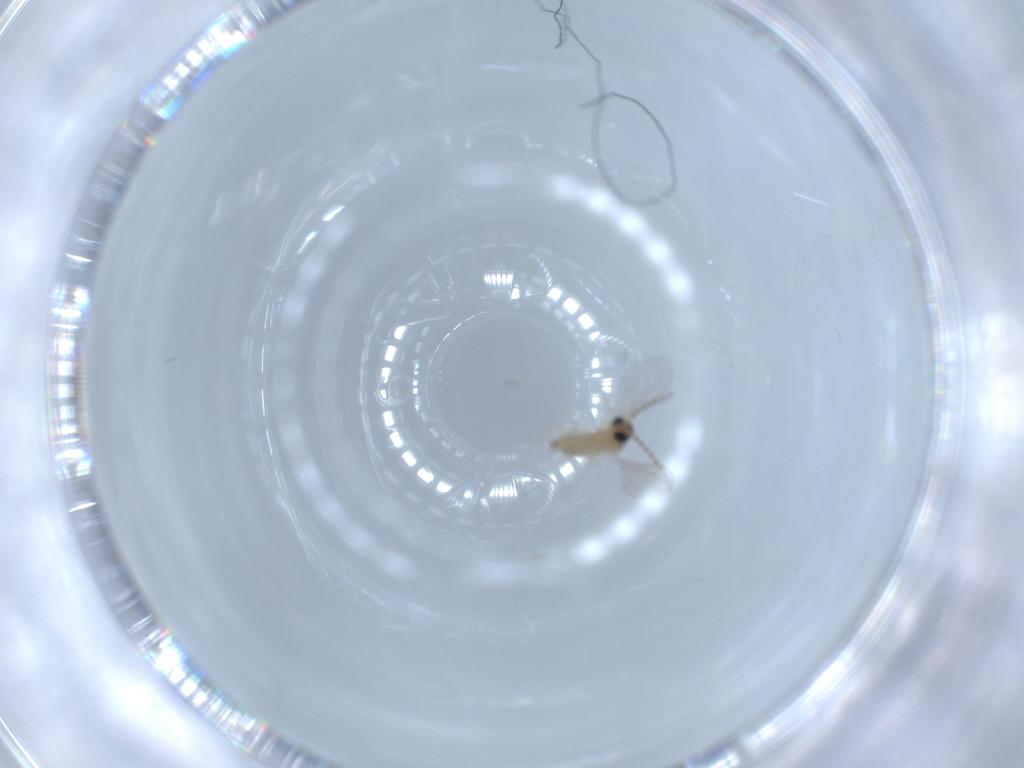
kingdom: Animalia
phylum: Arthropoda
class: Insecta
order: Diptera
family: Cecidomyiidae
